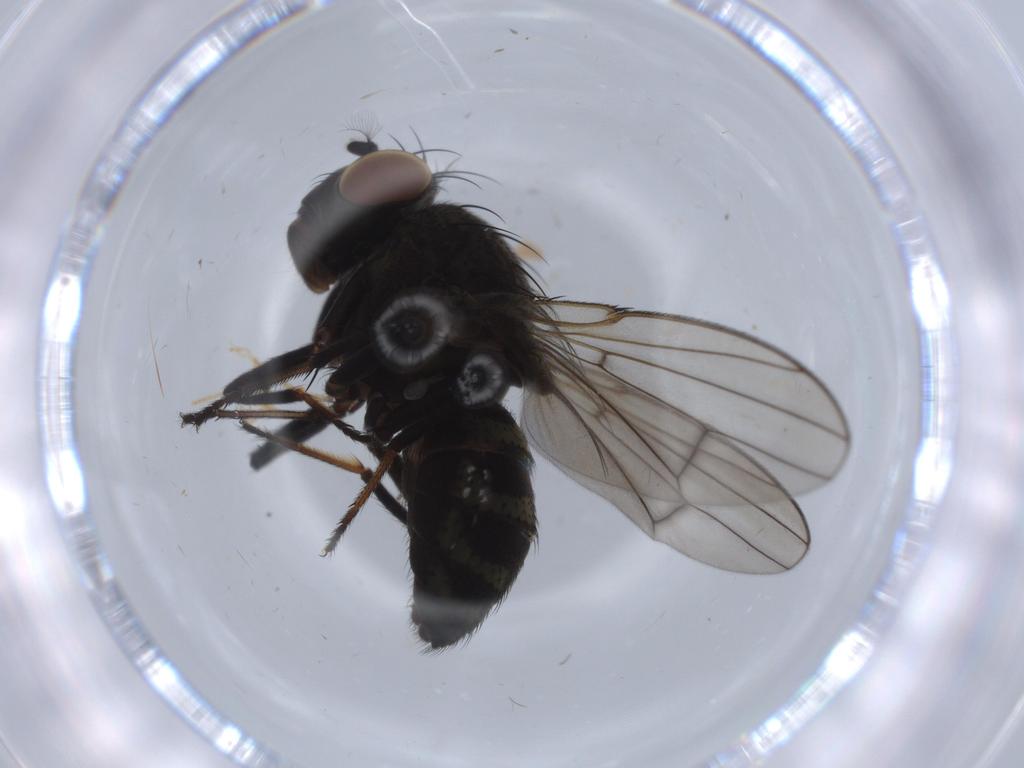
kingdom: Animalia
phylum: Arthropoda
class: Insecta
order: Diptera
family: Ephydridae
